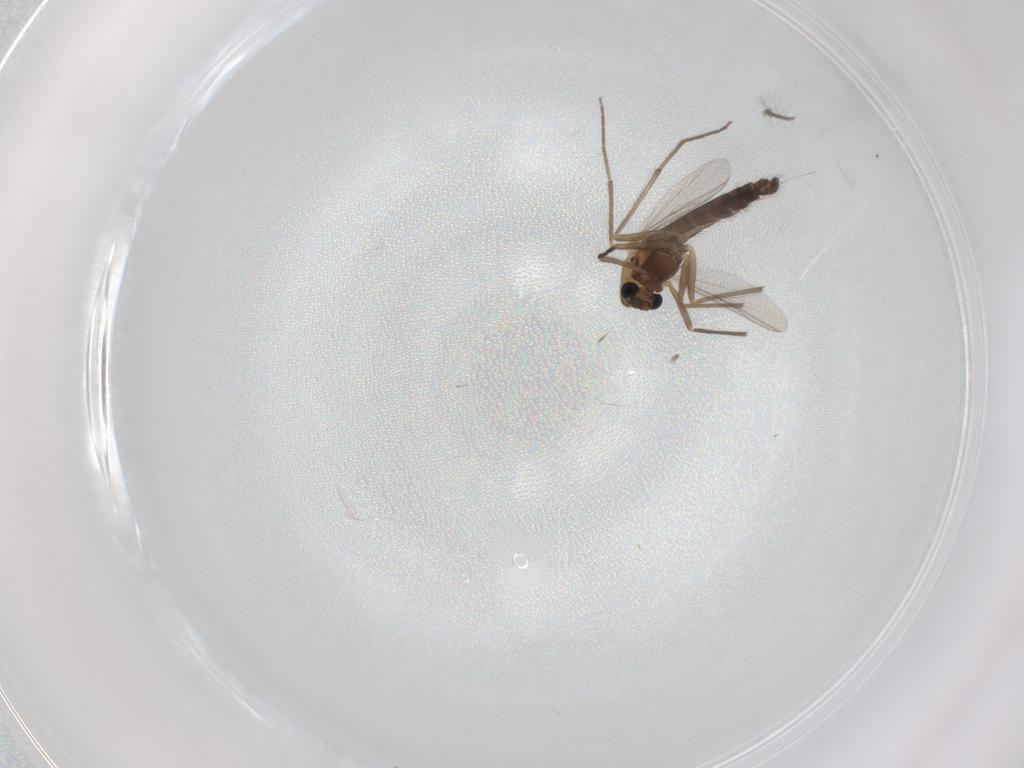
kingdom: Animalia
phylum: Arthropoda
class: Insecta
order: Diptera
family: Chironomidae
